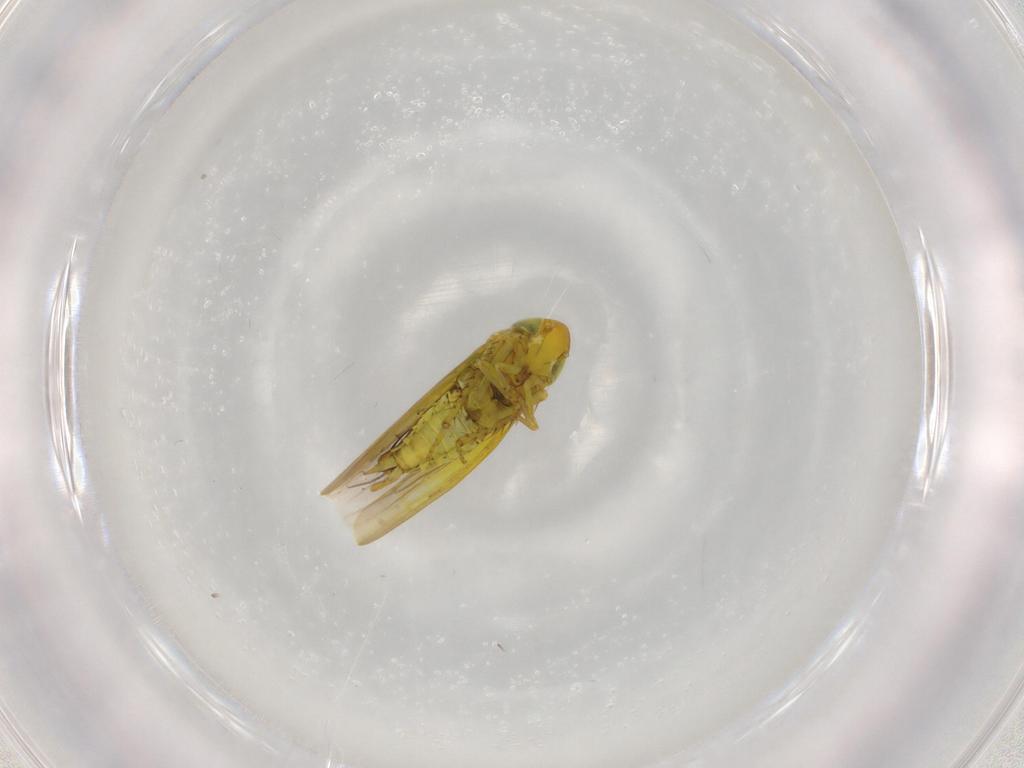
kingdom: Animalia
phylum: Arthropoda
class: Insecta
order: Hemiptera
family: Cicadellidae
